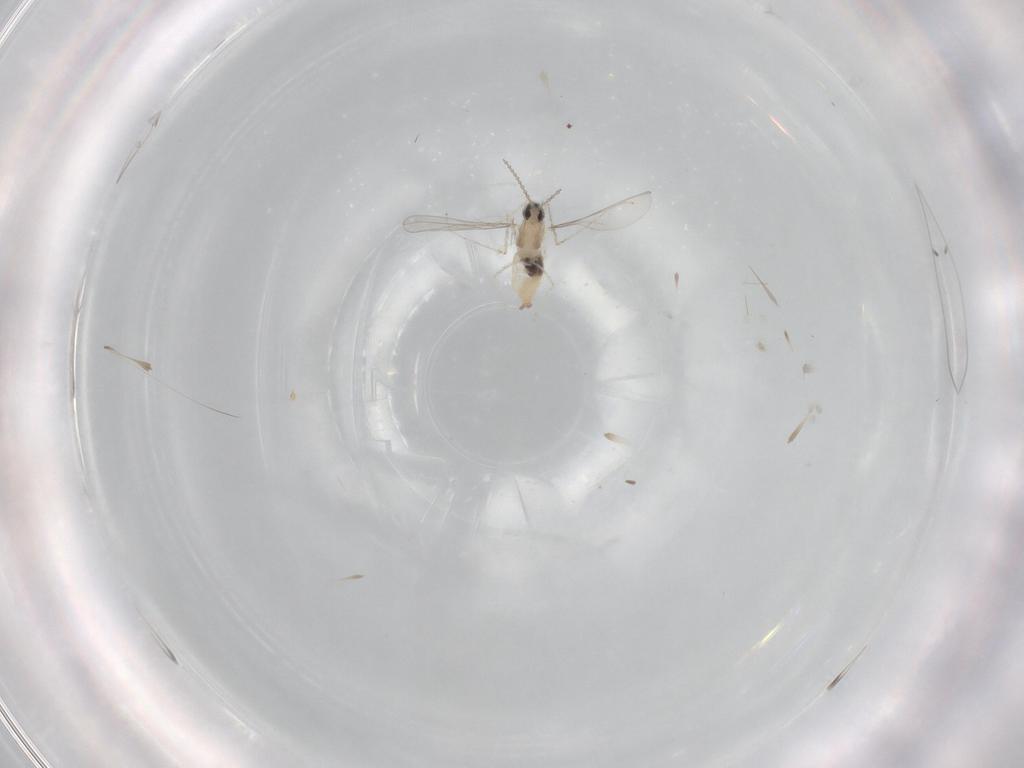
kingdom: Animalia
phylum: Arthropoda
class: Insecta
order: Diptera
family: Cecidomyiidae
